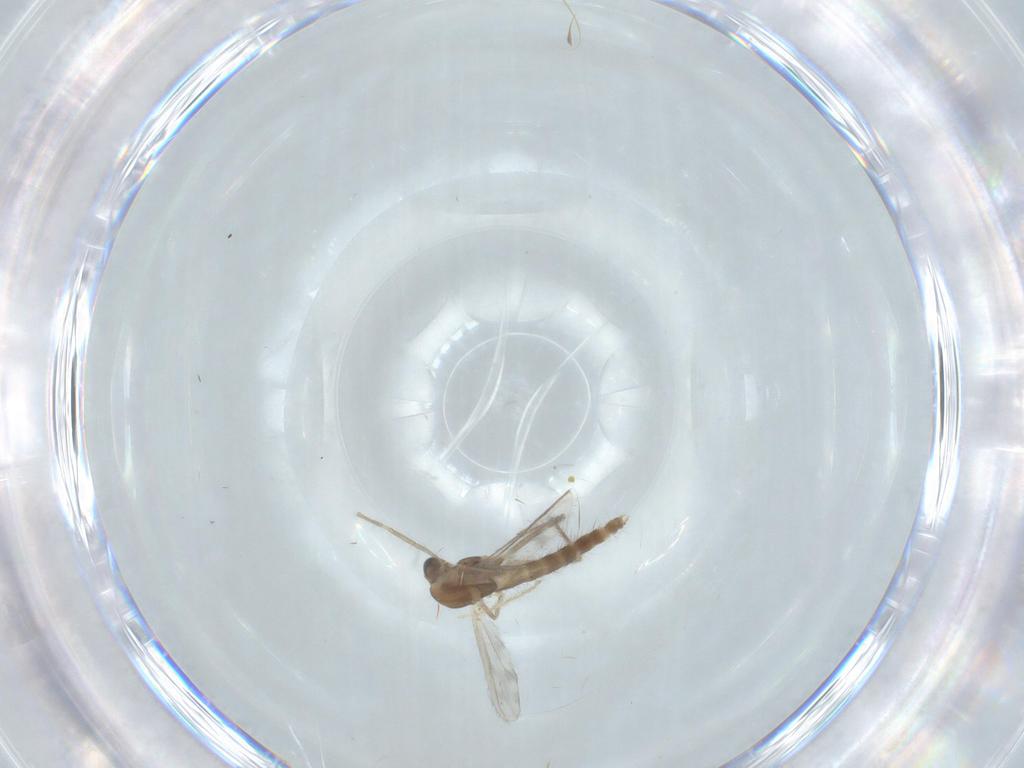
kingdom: Animalia
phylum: Arthropoda
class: Insecta
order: Diptera
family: Chironomidae
